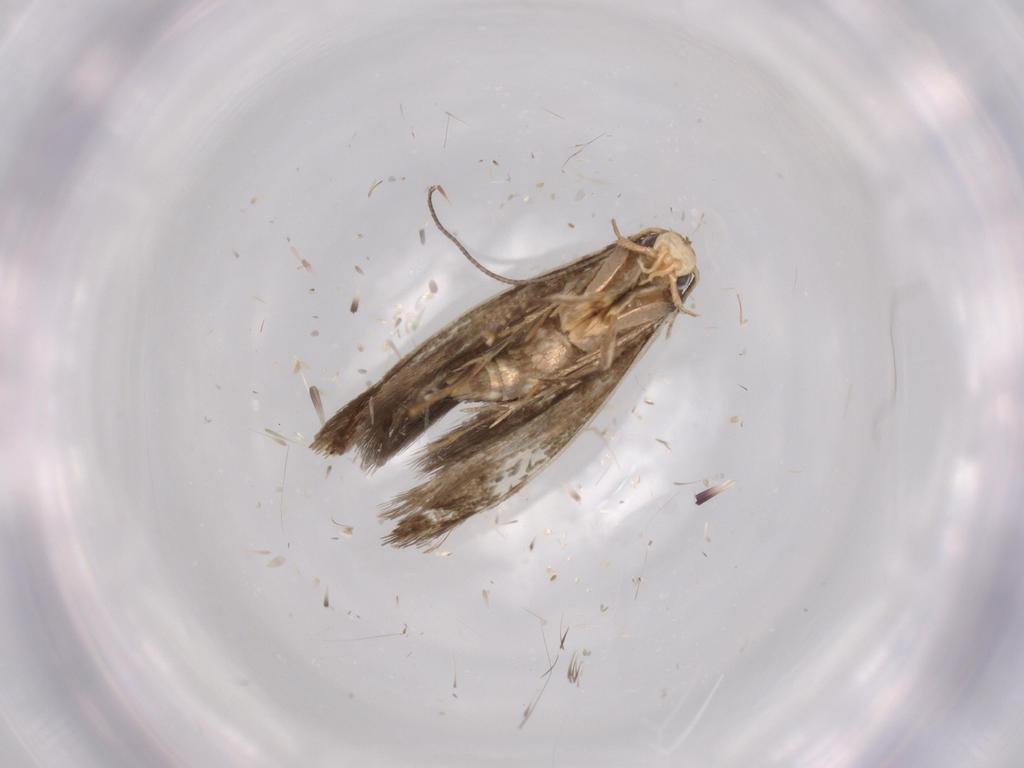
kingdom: Animalia
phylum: Arthropoda
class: Insecta
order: Lepidoptera
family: Tineidae
